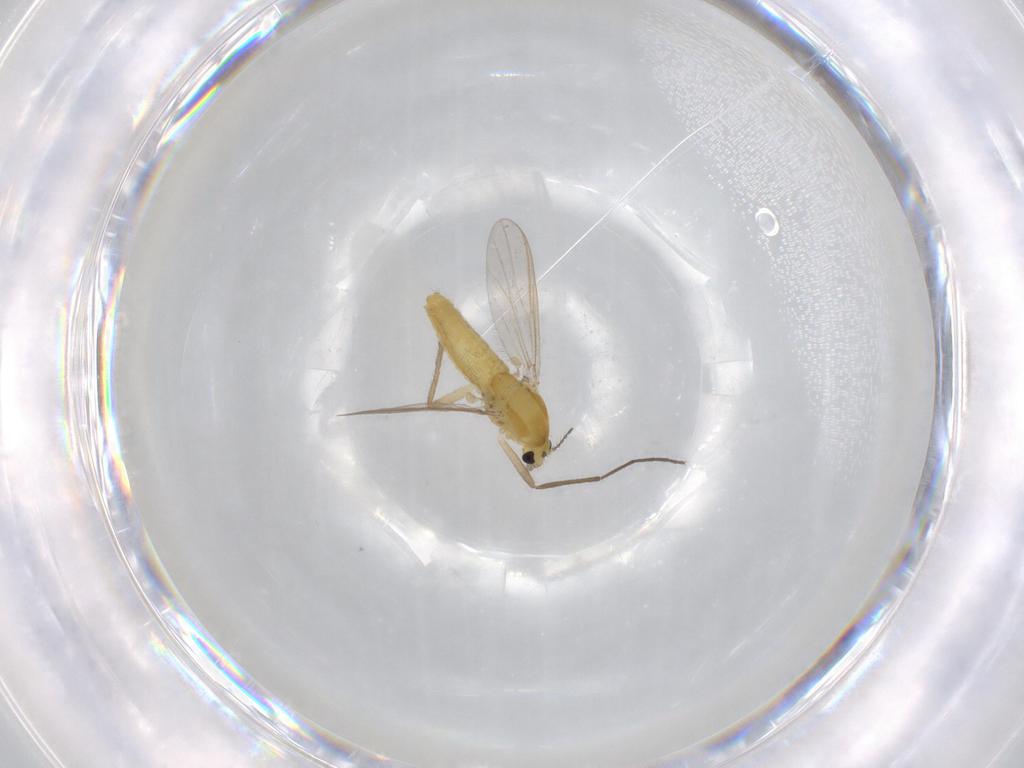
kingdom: Animalia
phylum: Arthropoda
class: Insecta
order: Diptera
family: Chironomidae
